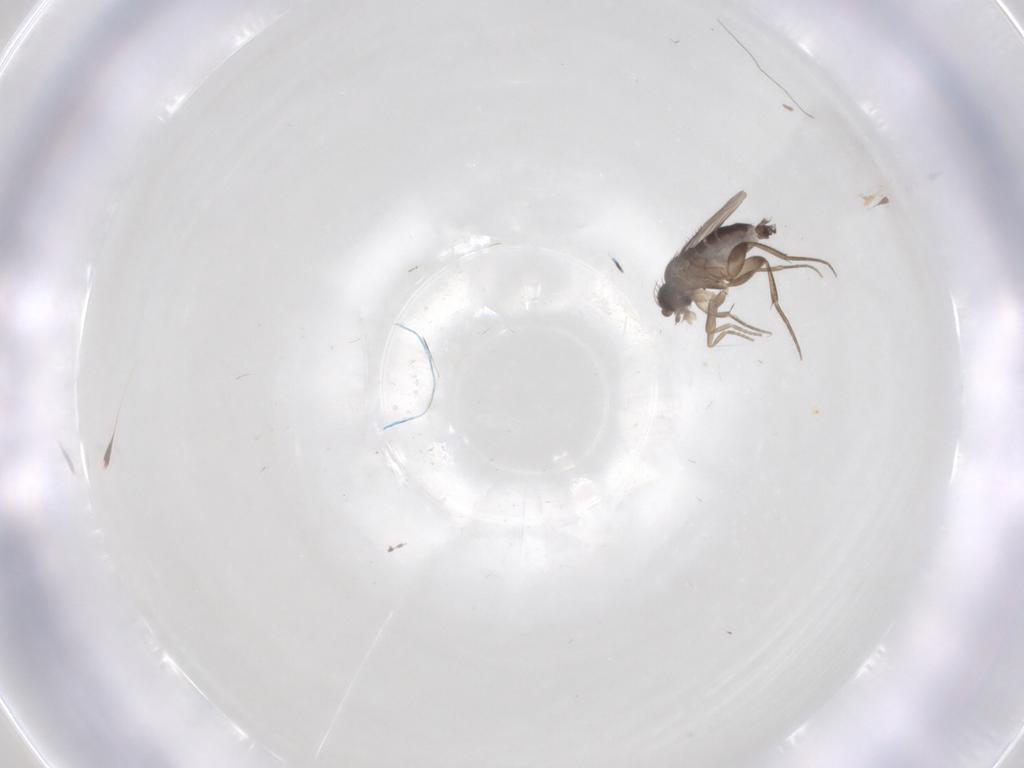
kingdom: Animalia
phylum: Arthropoda
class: Insecta
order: Diptera
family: Phoridae
